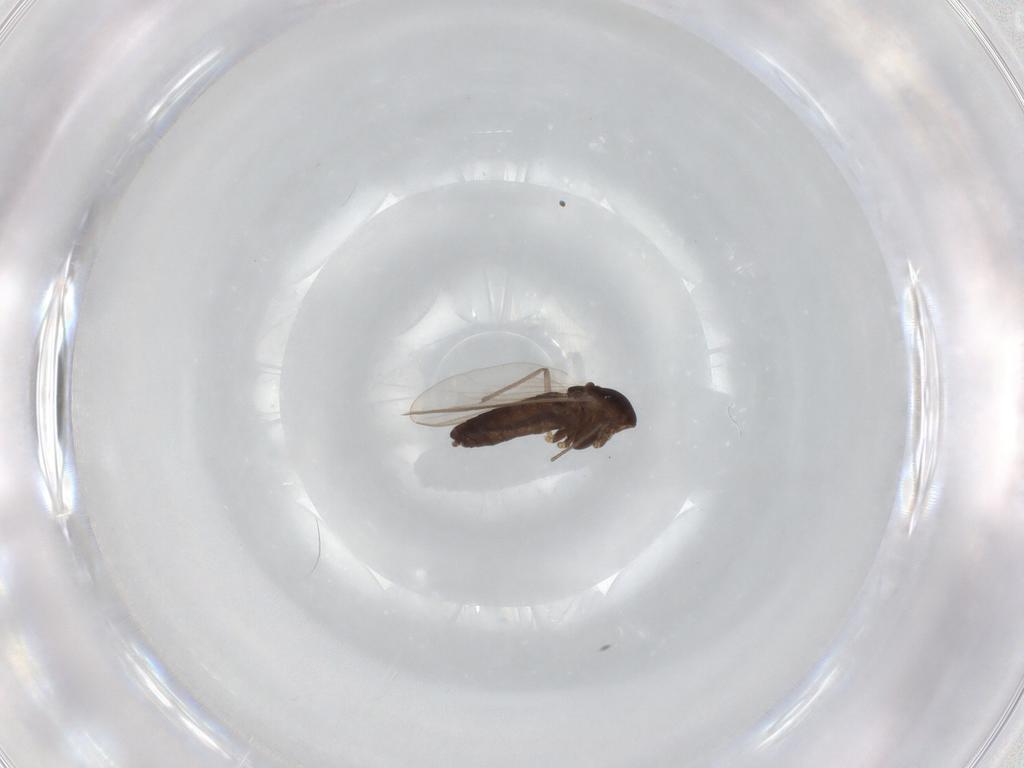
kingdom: Animalia
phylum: Arthropoda
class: Insecta
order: Diptera
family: Chironomidae
